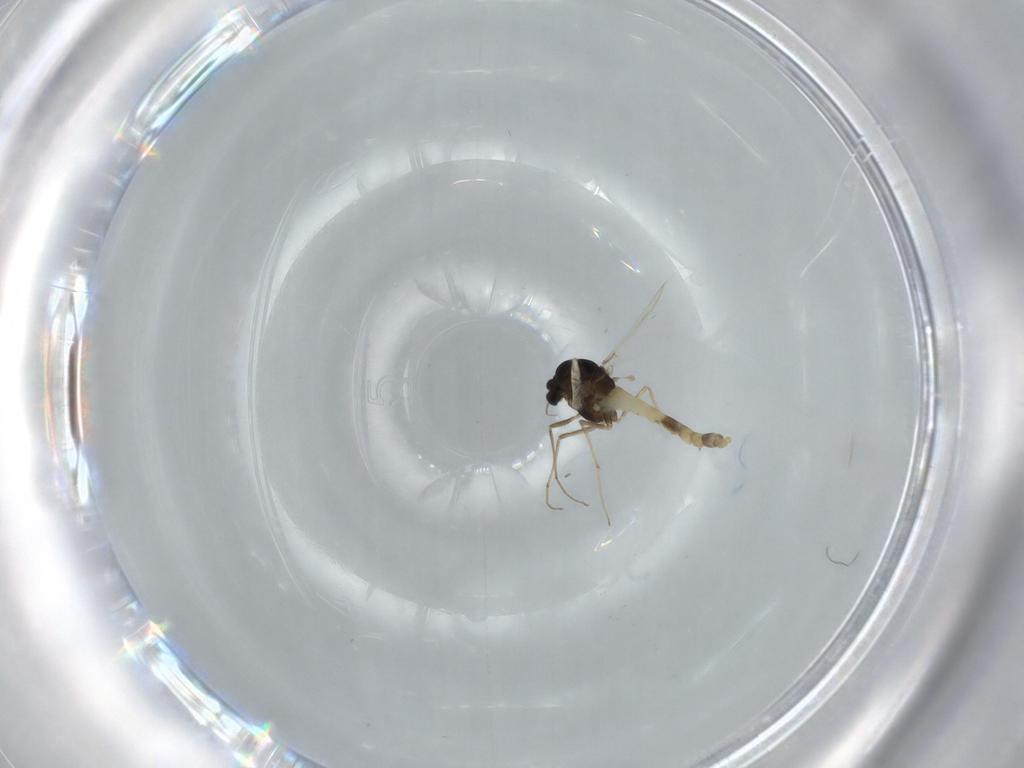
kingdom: Animalia
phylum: Arthropoda
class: Insecta
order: Diptera
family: Chironomidae
